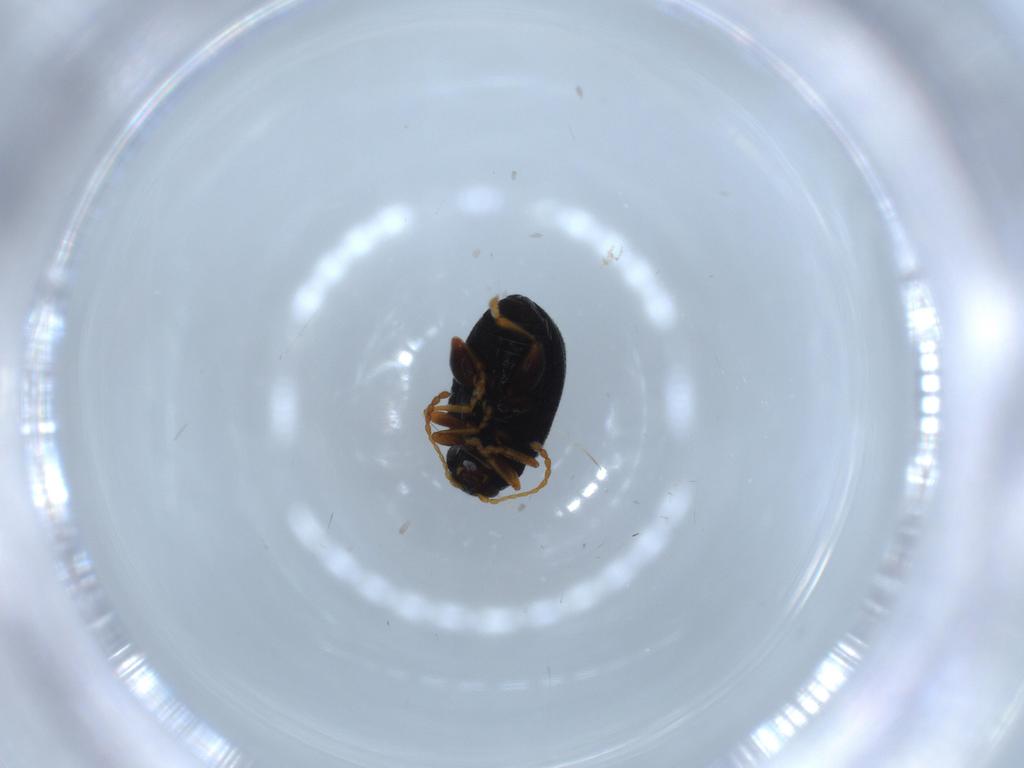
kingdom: Animalia
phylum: Arthropoda
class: Insecta
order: Coleoptera
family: Chrysomelidae
